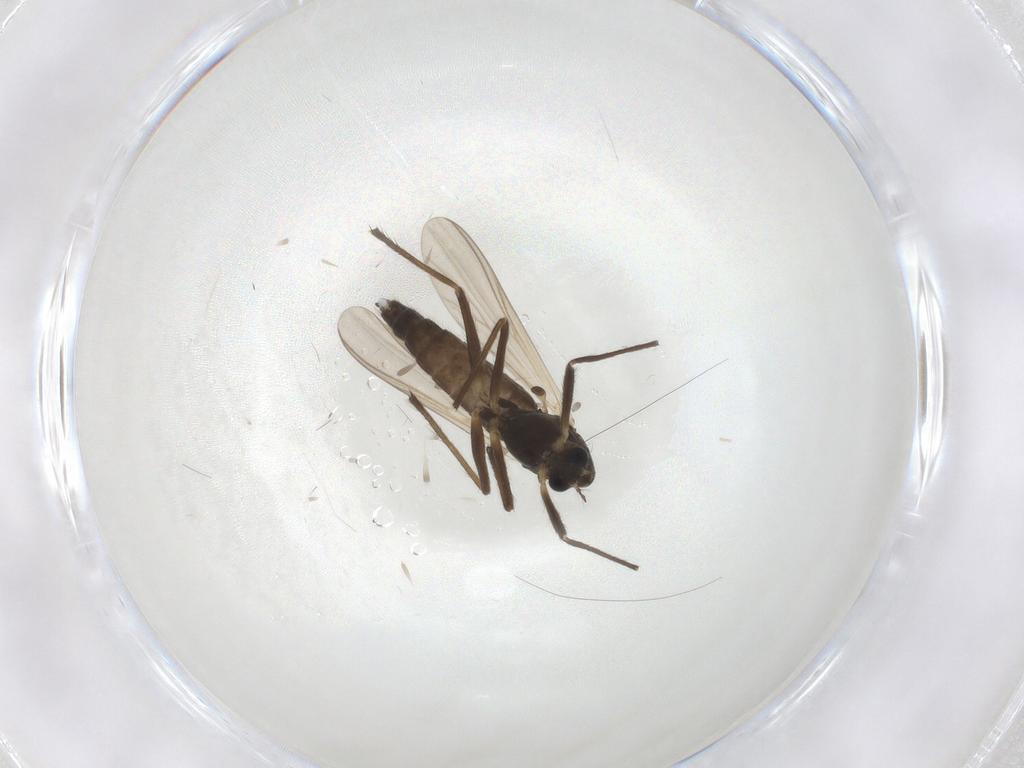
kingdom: Animalia
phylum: Arthropoda
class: Insecta
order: Diptera
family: Chironomidae
